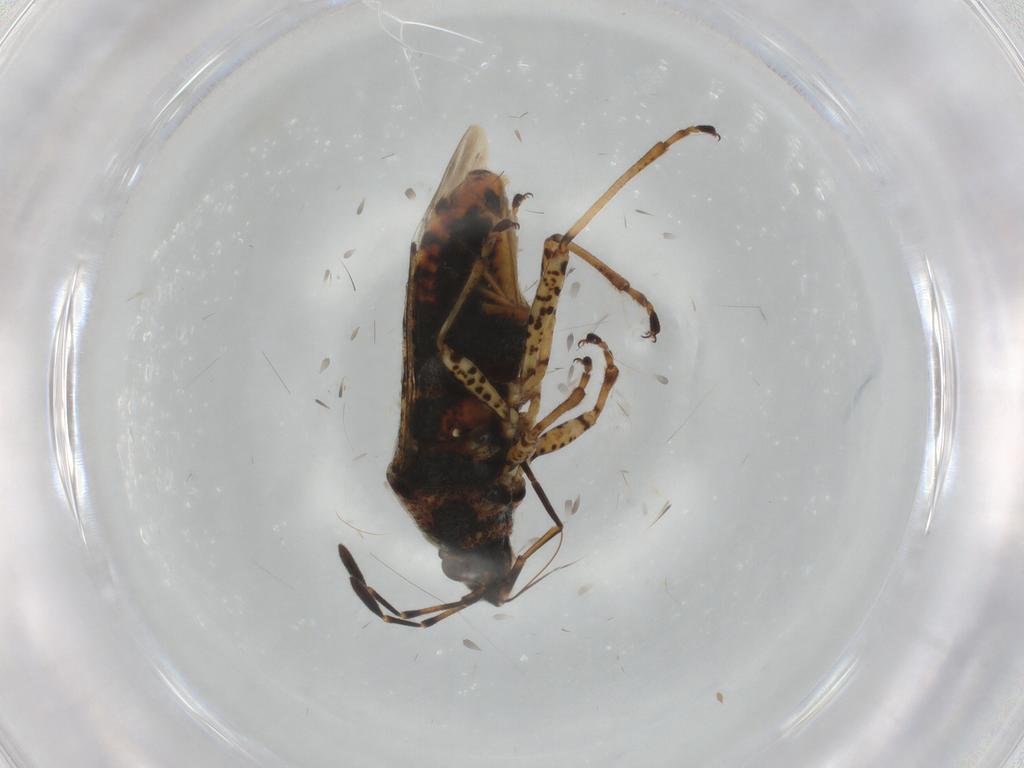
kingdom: Animalia
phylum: Arthropoda
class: Insecta
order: Hemiptera
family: Lygaeidae
